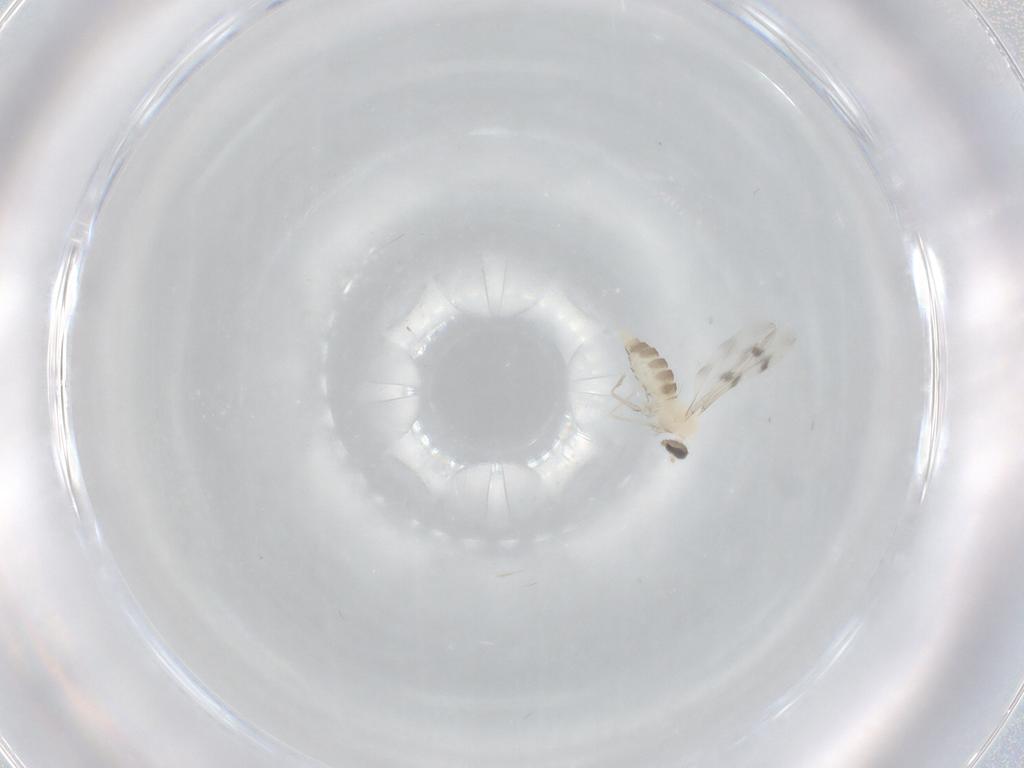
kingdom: Animalia
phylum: Arthropoda
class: Insecta
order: Diptera
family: Cecidomyiidae
